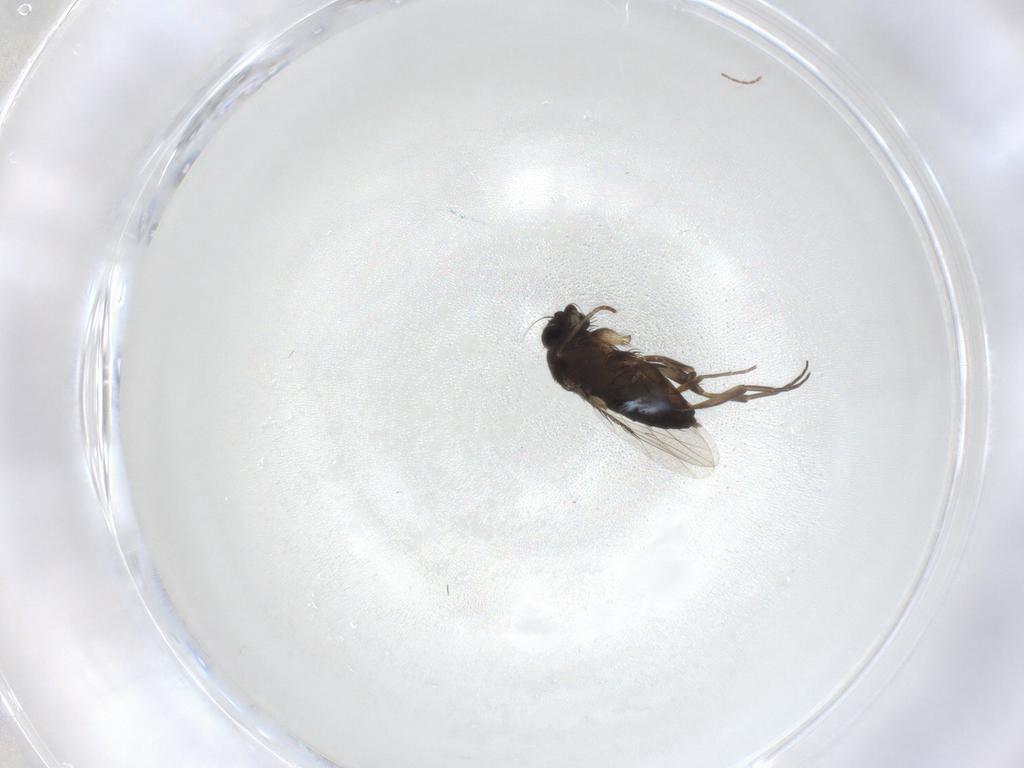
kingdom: Animalia
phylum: Arthropoda
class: Insecta
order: Diptera
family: Phoridae
